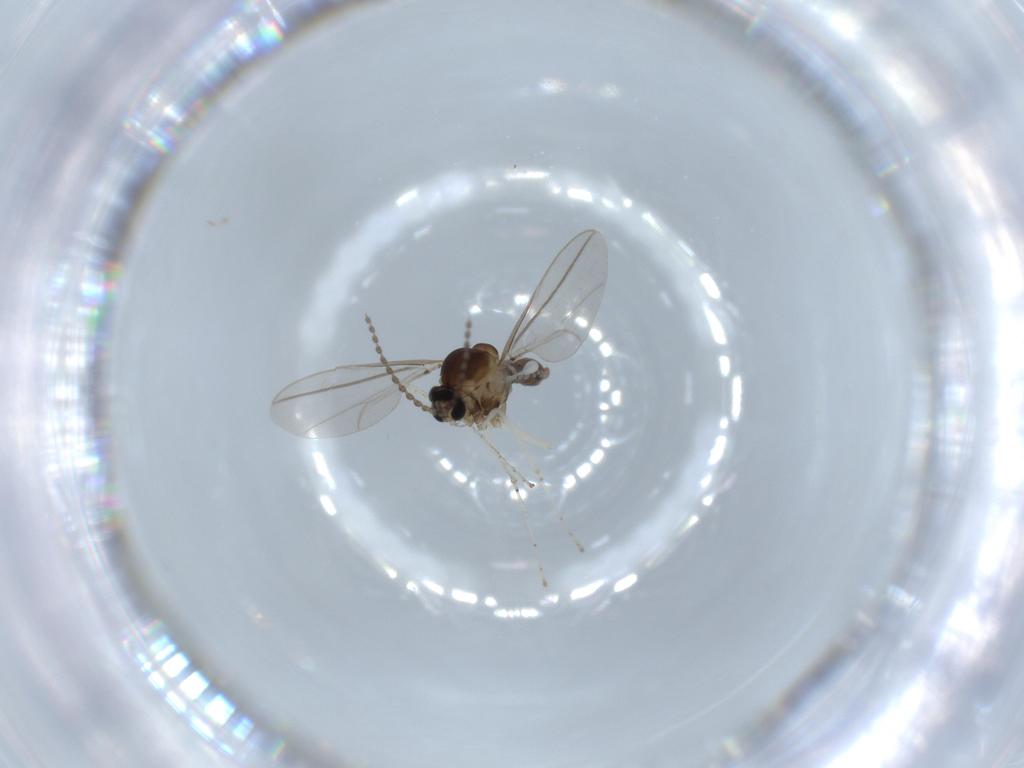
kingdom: Animalia
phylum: Arthropoda
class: Insecta
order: Diptera
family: Cecidomyiidae
